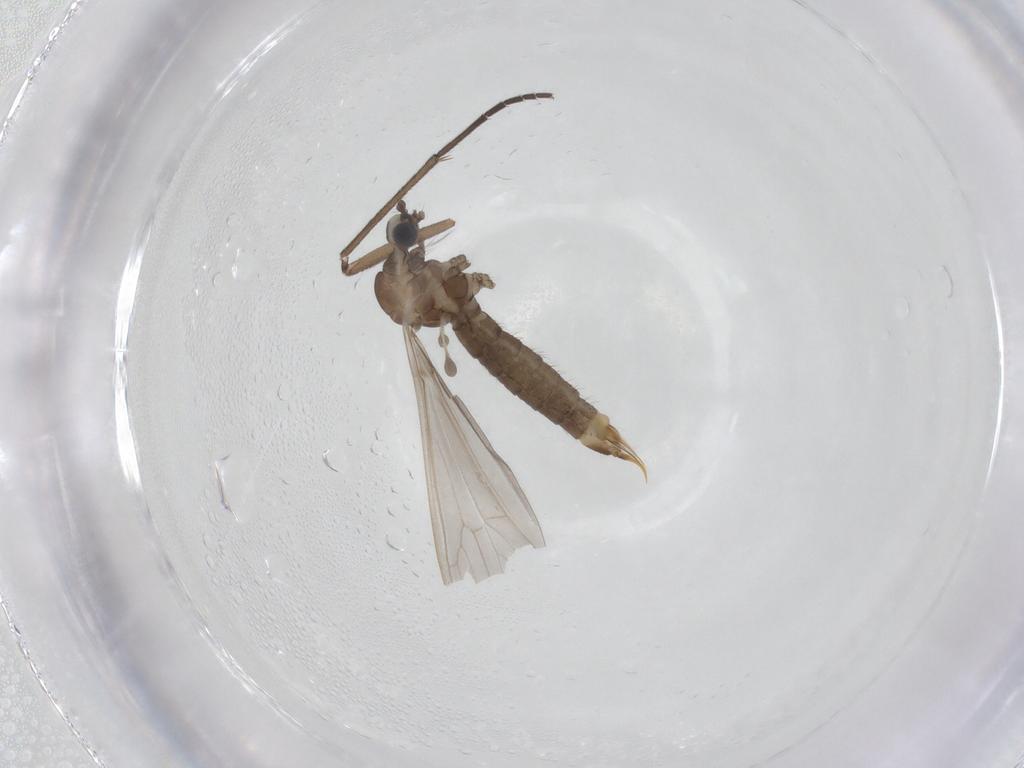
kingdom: Animalia
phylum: Arthropoda
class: Insecta
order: Diptera
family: Limoniidae
